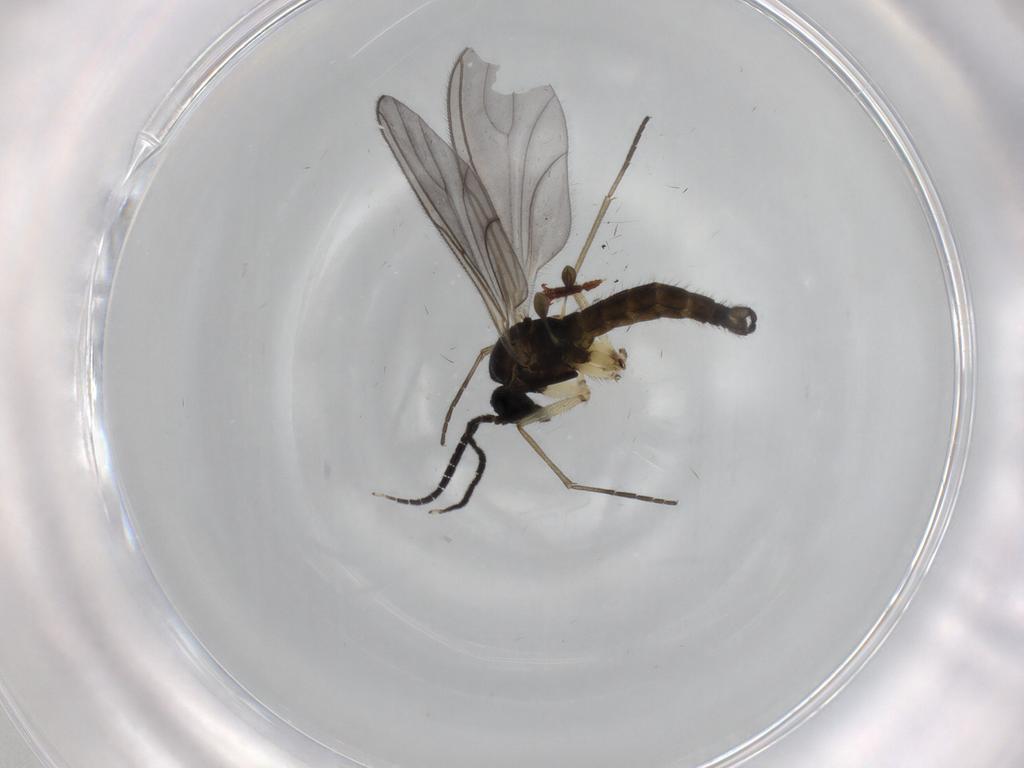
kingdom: Animalia
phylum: Arthropoda
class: Insecta
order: Diptera
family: Sciaridae
